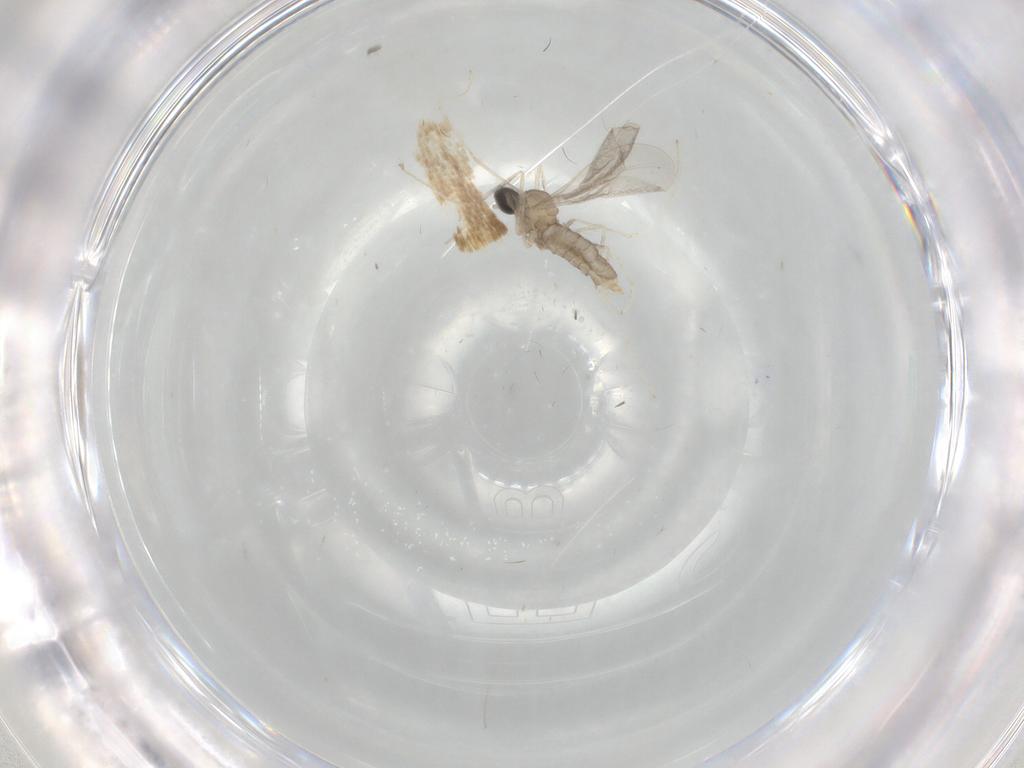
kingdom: Animalia
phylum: Arthropoda
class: Insecta
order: Diptera
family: Cecidomyiidae
